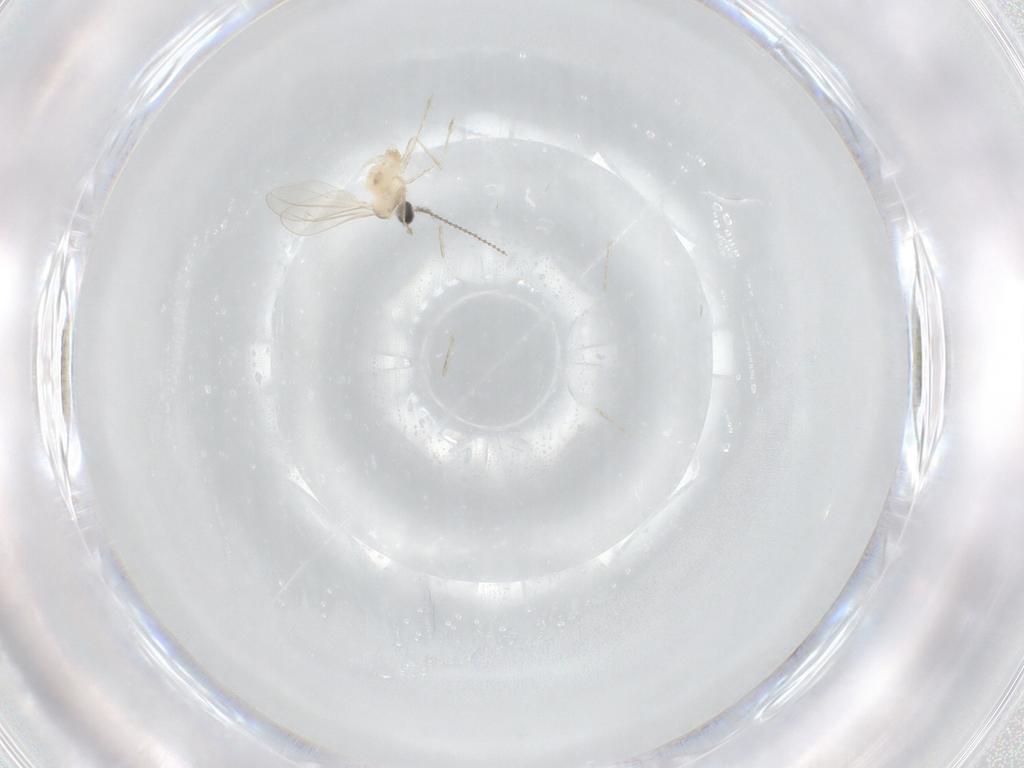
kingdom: Animalia
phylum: Arthropoda
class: Insecta
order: Diptera
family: Chironomidae
